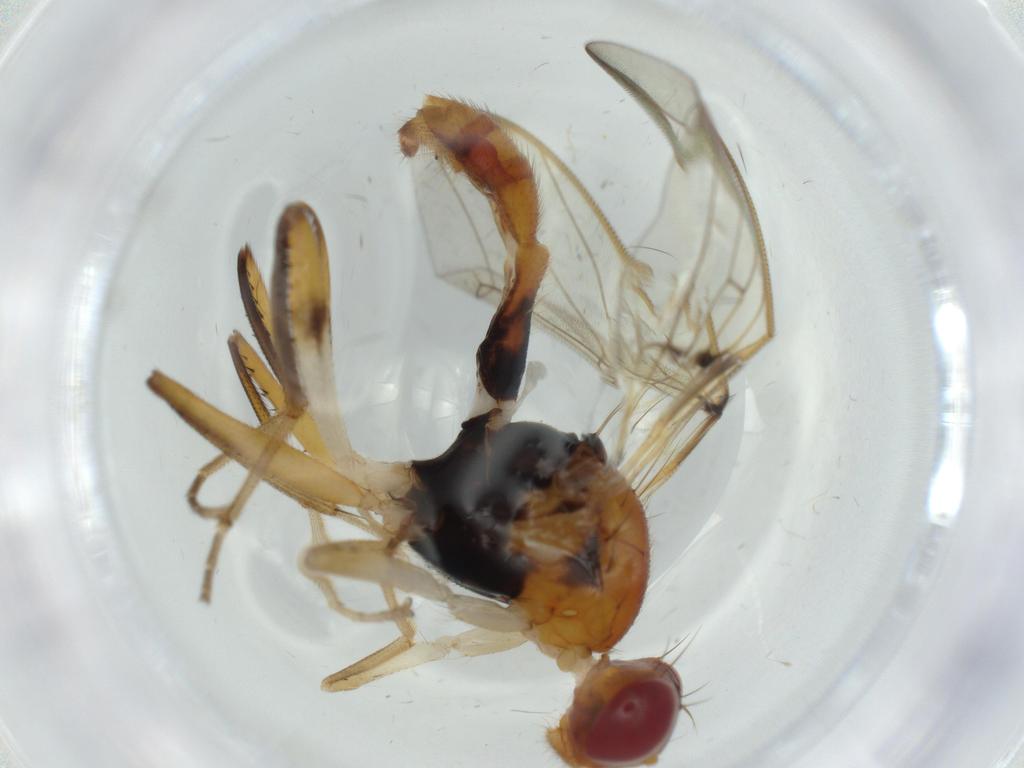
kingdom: Animalia
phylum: Arthropoda
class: Insecta
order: Diptera
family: Richardiidae
